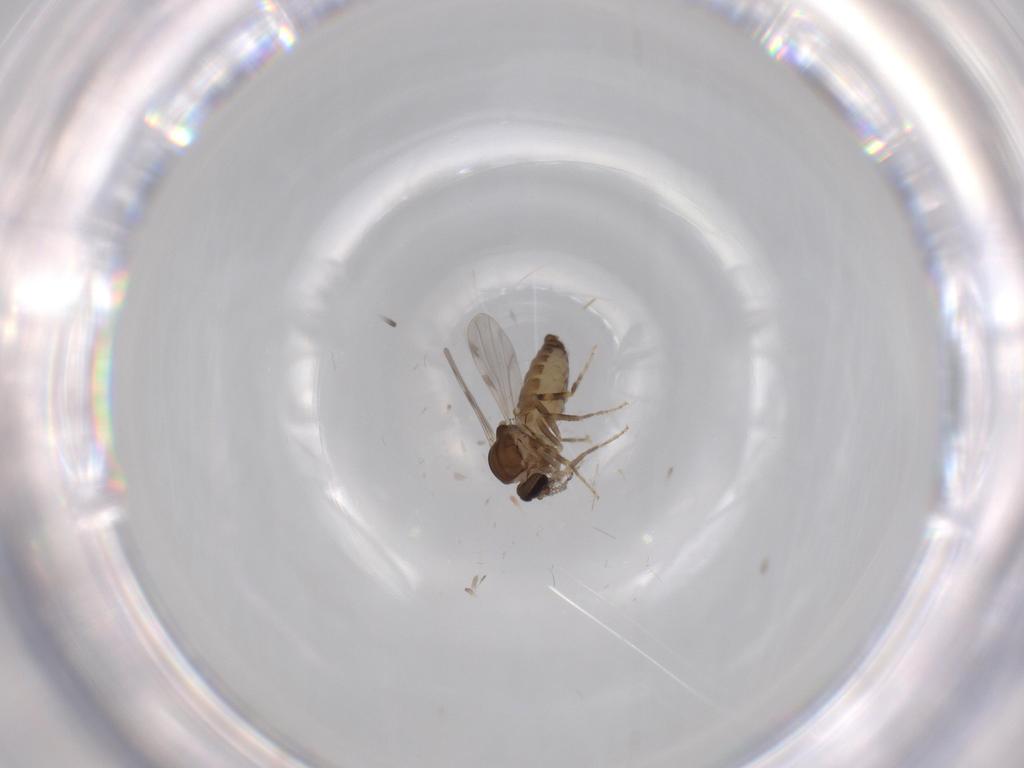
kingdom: Animalia
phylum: Arthropoda
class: Insecta
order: Diptera
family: Ceratopogonidae
